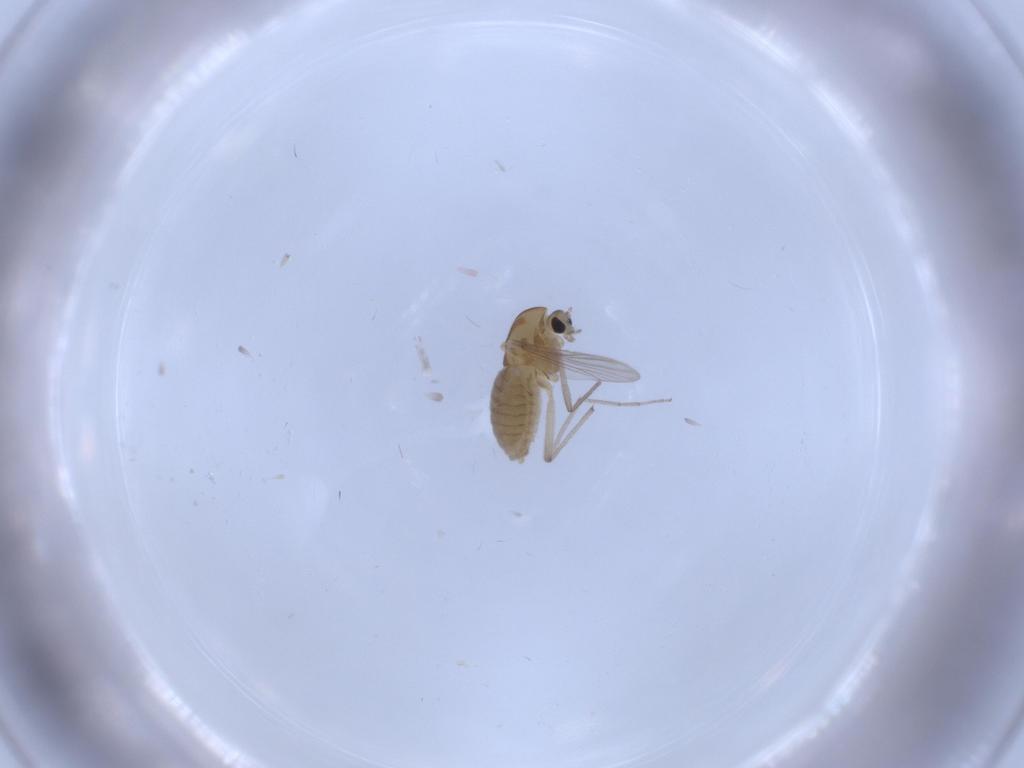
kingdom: Animalia
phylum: Arthropoda
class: Insecta
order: Diptera
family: Chironomidae
